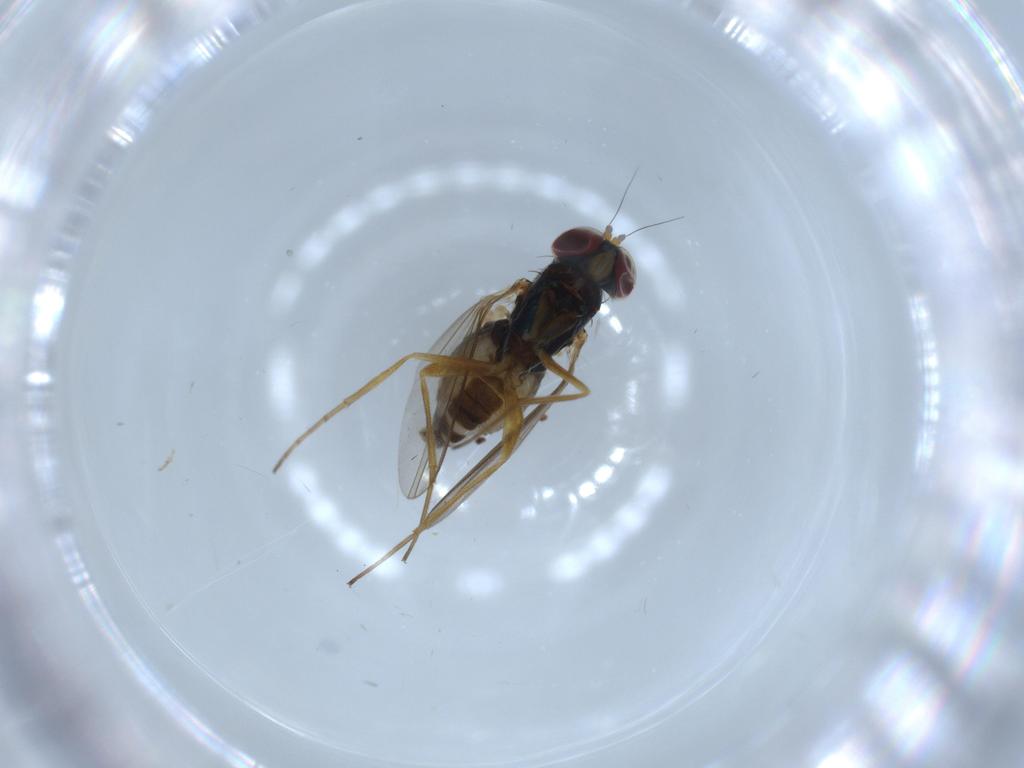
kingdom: Animalia
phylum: Arthropoda
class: Insecta
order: Diptera
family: Dolichopodidae
